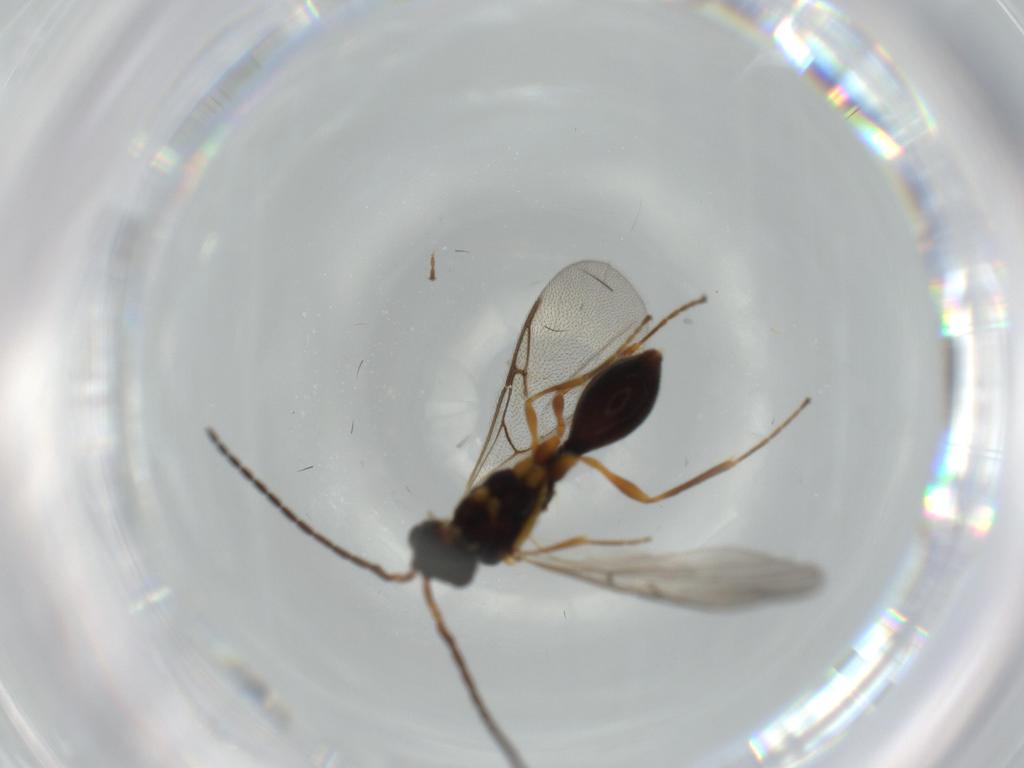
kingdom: Animalia
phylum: Arthropoda
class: Insecta
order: Hymenoptera
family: Diapriidae
